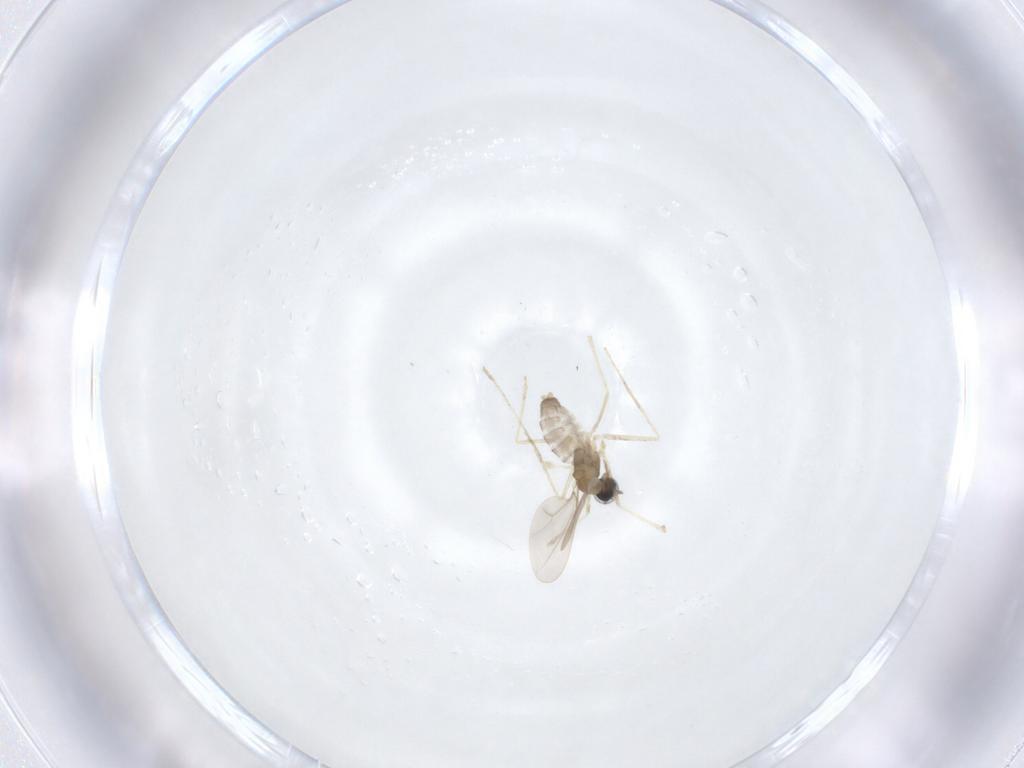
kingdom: Animalia
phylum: Arthropoda
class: Insecta
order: Diptera
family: Cecidomyiidae
